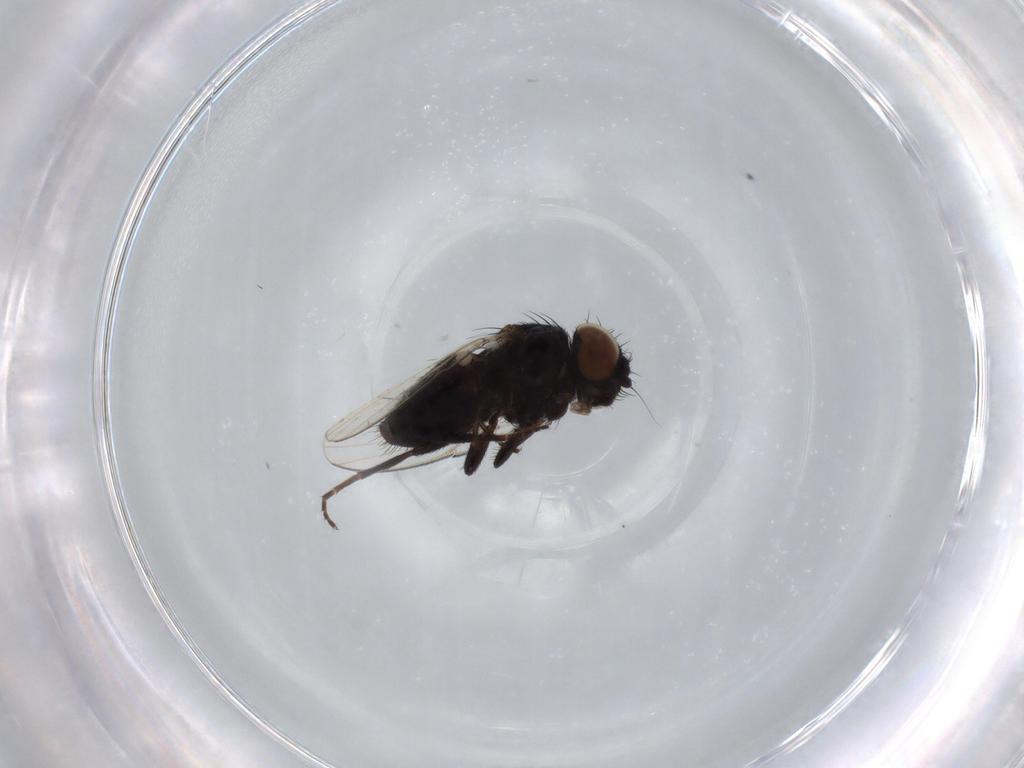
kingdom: Animalia
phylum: Arthropoda
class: Insecta
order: Diptera
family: Milichiidae
